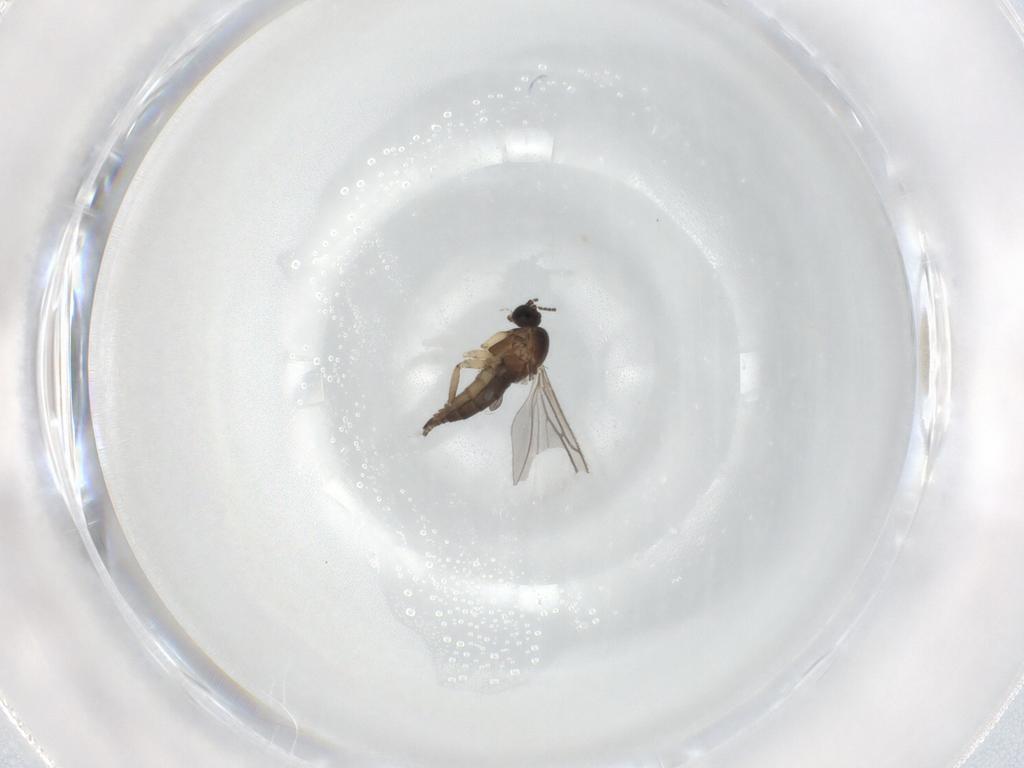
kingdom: Animalia
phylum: Arthropoda
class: Insecta
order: Diptera
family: Sciaridae
